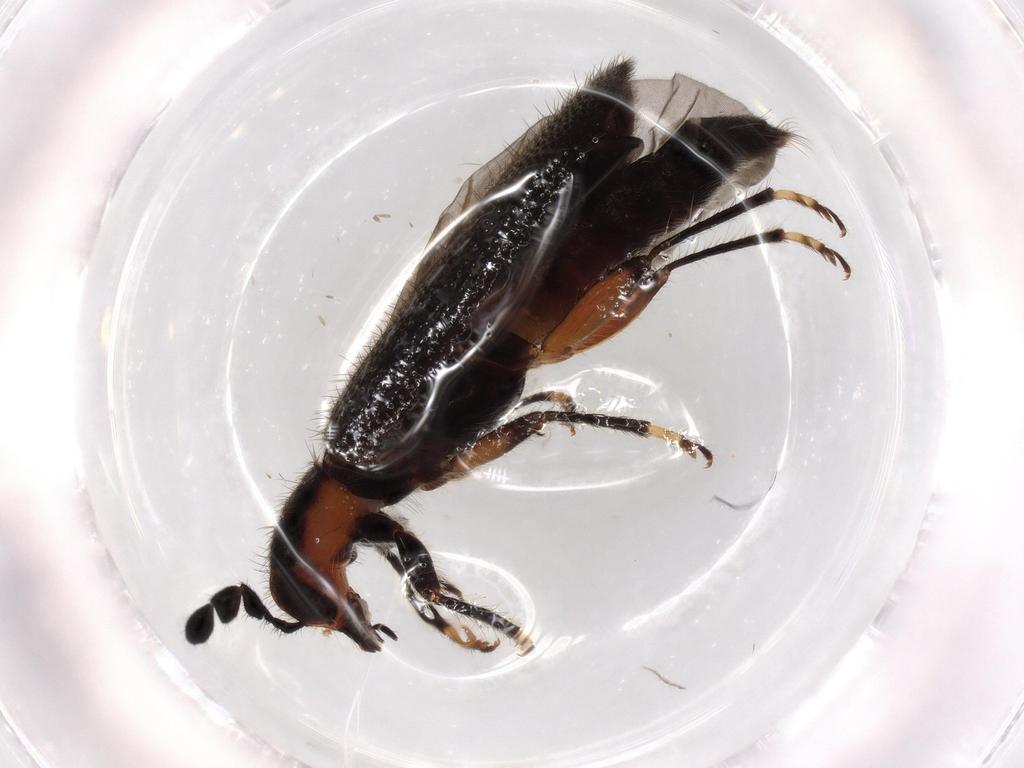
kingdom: Animalia
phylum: Arthropoda
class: Insecta
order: Coleoptera
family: Cleridae
